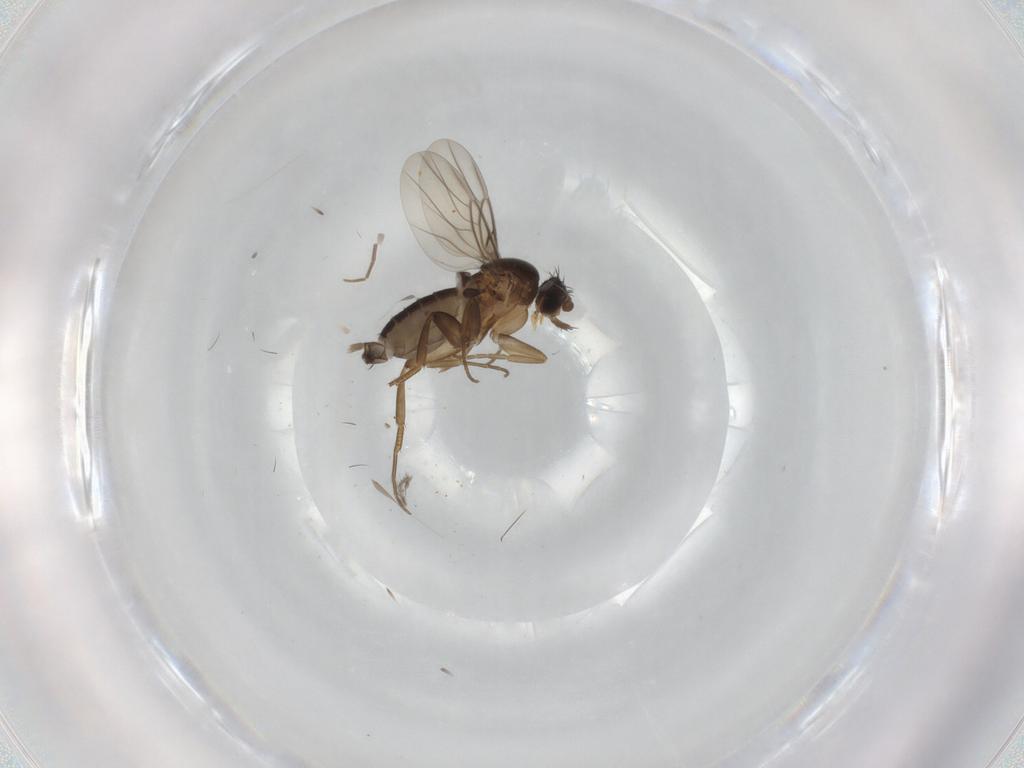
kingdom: Animalia
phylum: Arthropoda
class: Insecta
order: Diptera
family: Phoridae
